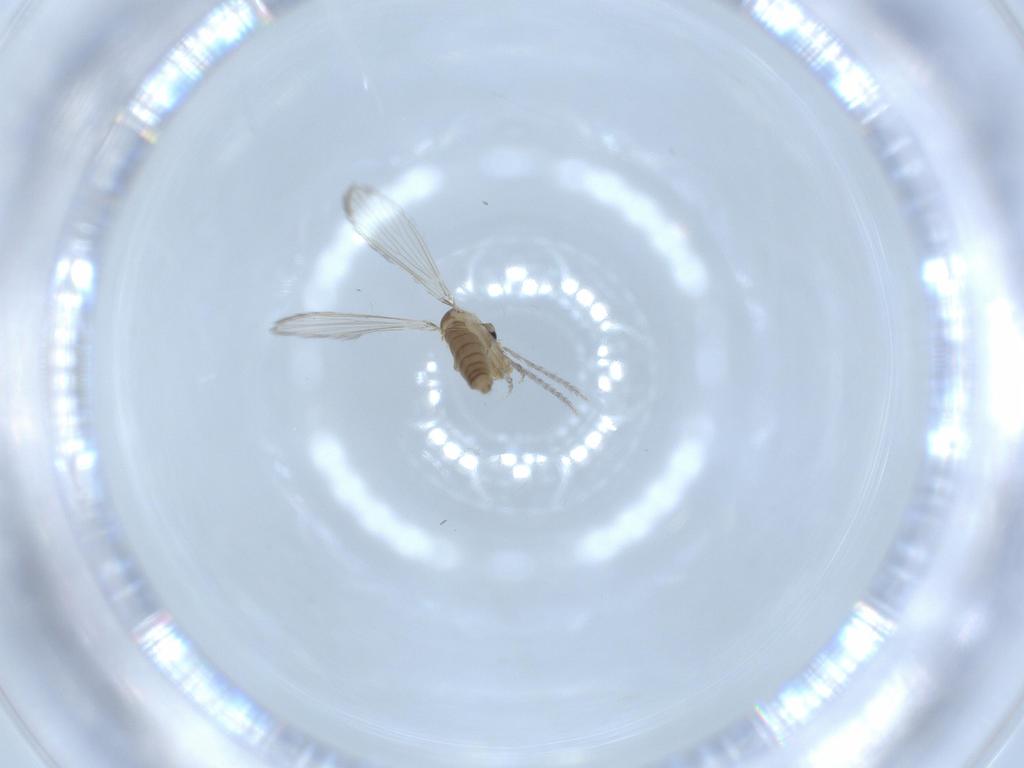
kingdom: Animalia
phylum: Arthropoda
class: Insecta
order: Diptera
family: Psychodidae
